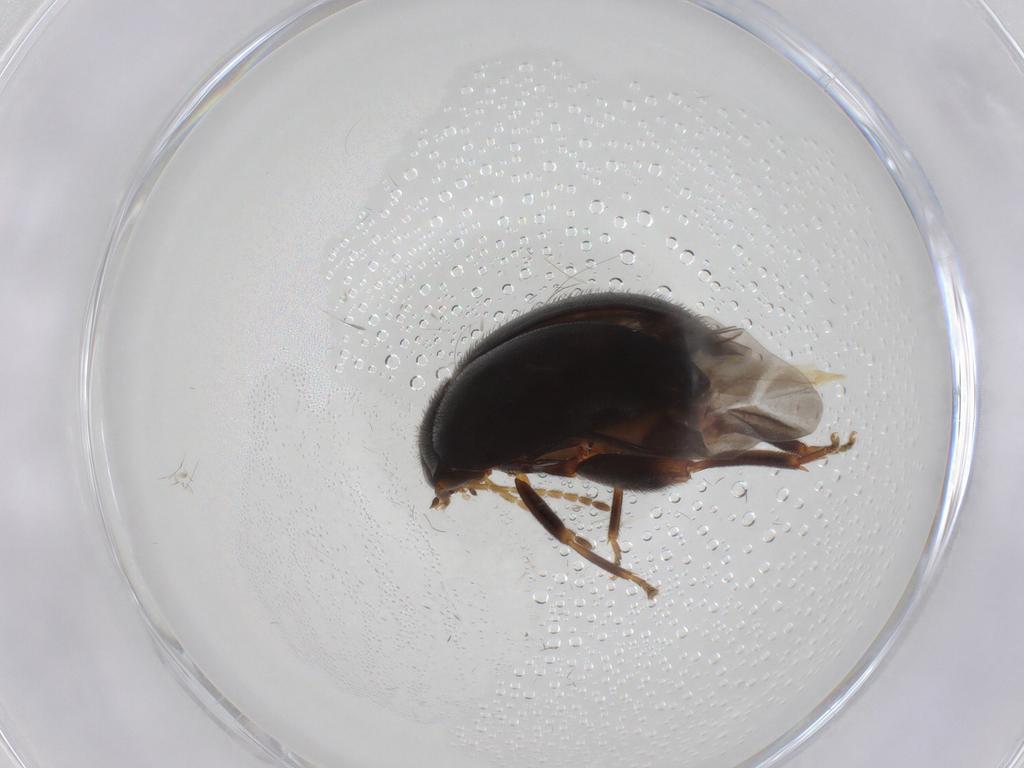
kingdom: Animalia
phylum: Arthropoda
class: Insecta
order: Coleoptera
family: Scirtidae
